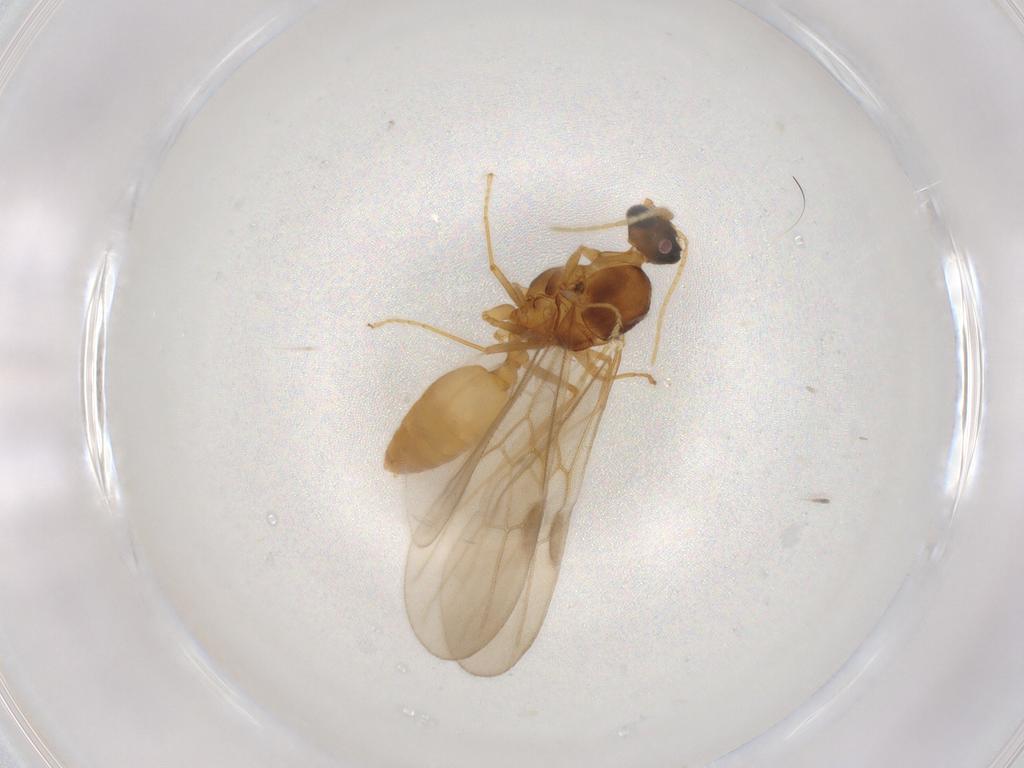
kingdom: Animalia
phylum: Arthropoda
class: Insecta
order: Hymenoptera
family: Formicidae
